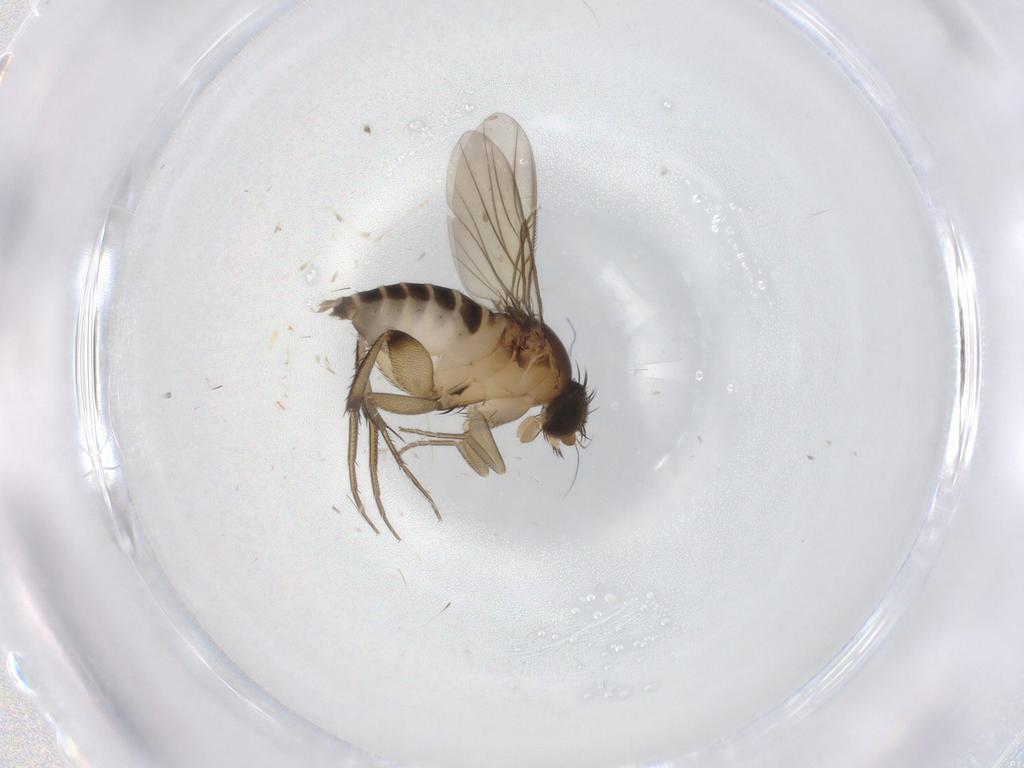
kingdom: Animalia
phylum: Arthropoda
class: Insecta
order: Diptera
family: Phoridae
